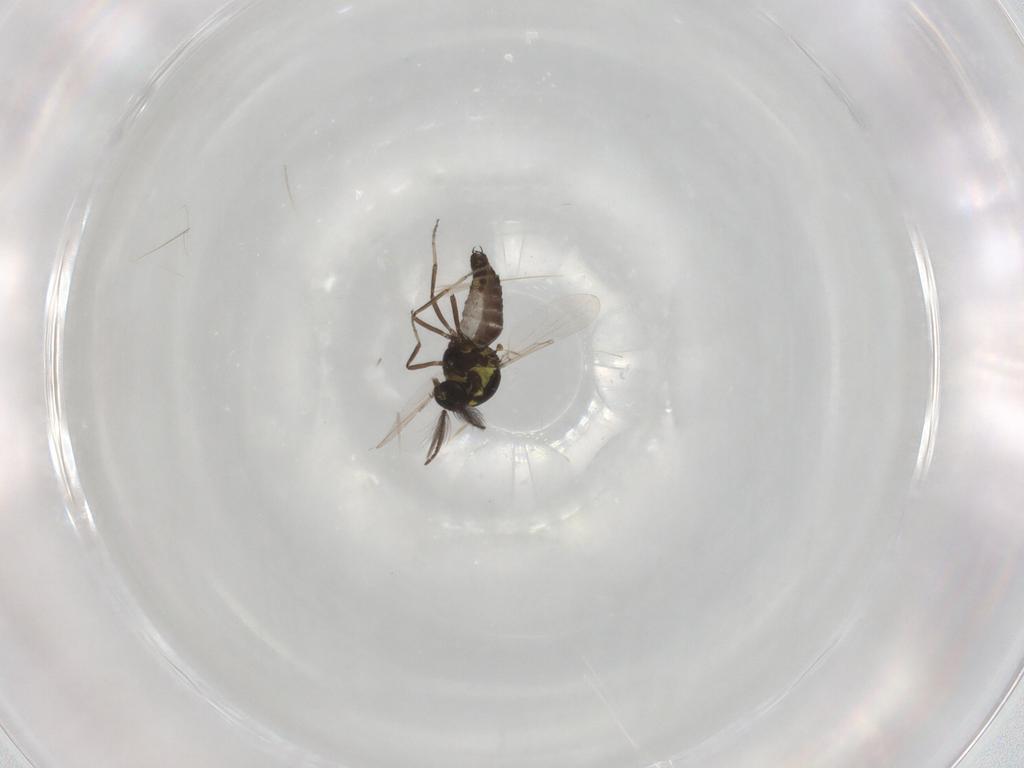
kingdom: Animalia
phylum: Arthropoda
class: Insecta
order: Diptera
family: Ceratopogonidae
